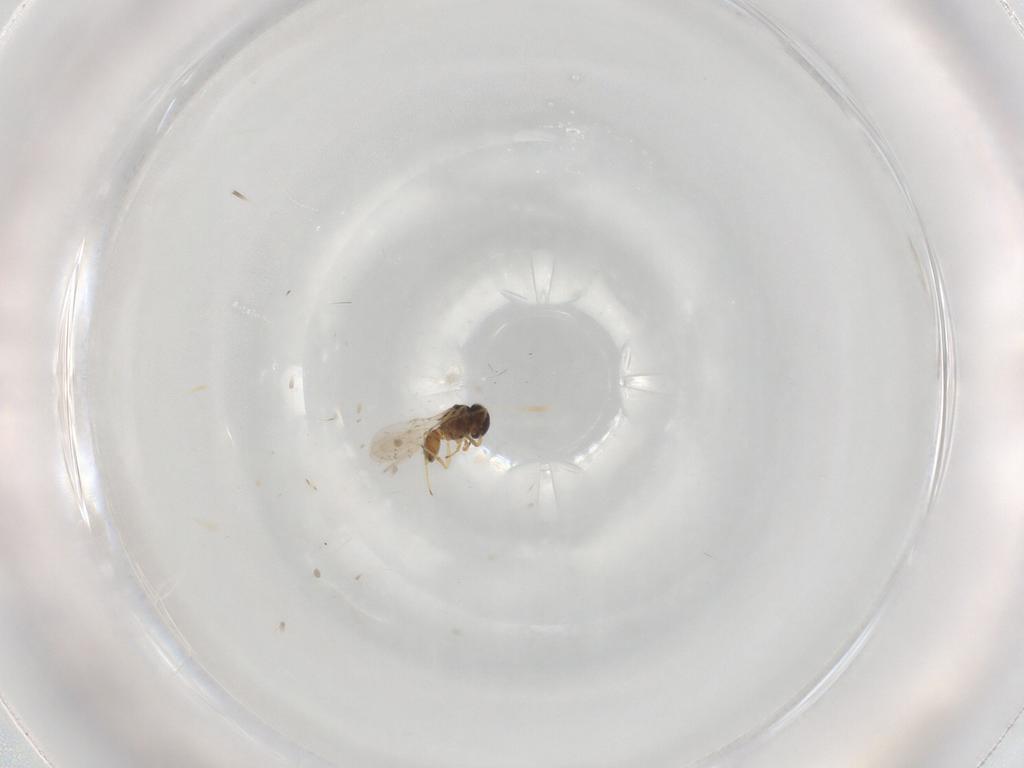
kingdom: Animalia
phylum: Arthropoda
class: Insecta
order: Hymenoptera
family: Scelionidae
